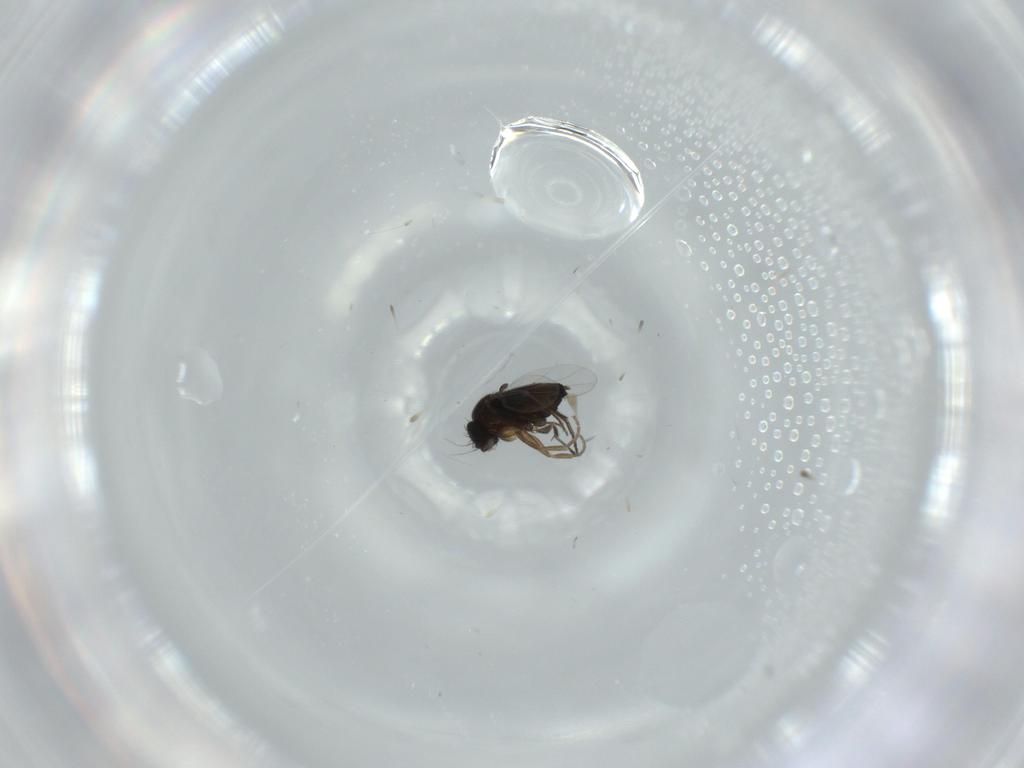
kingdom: Animalia
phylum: Arthropoda
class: Insecta
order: Diptera
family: Phoridae
